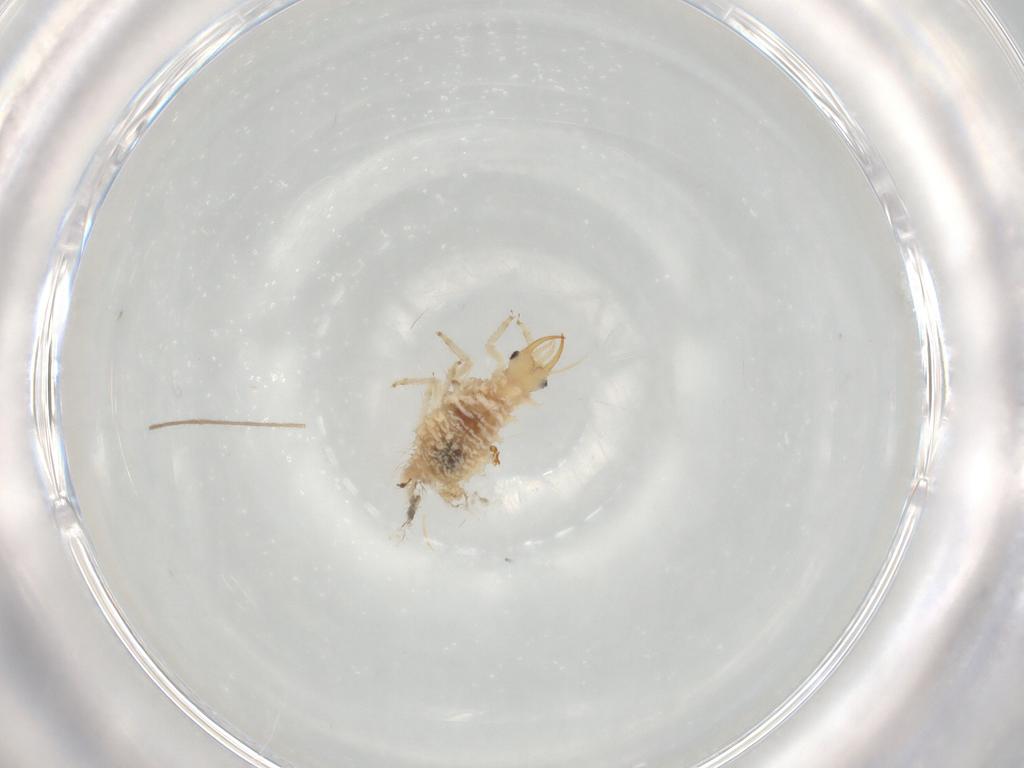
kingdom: Animalia
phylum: Arthropoda
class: Insecta
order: Neuroptera
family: Chrysopidae
